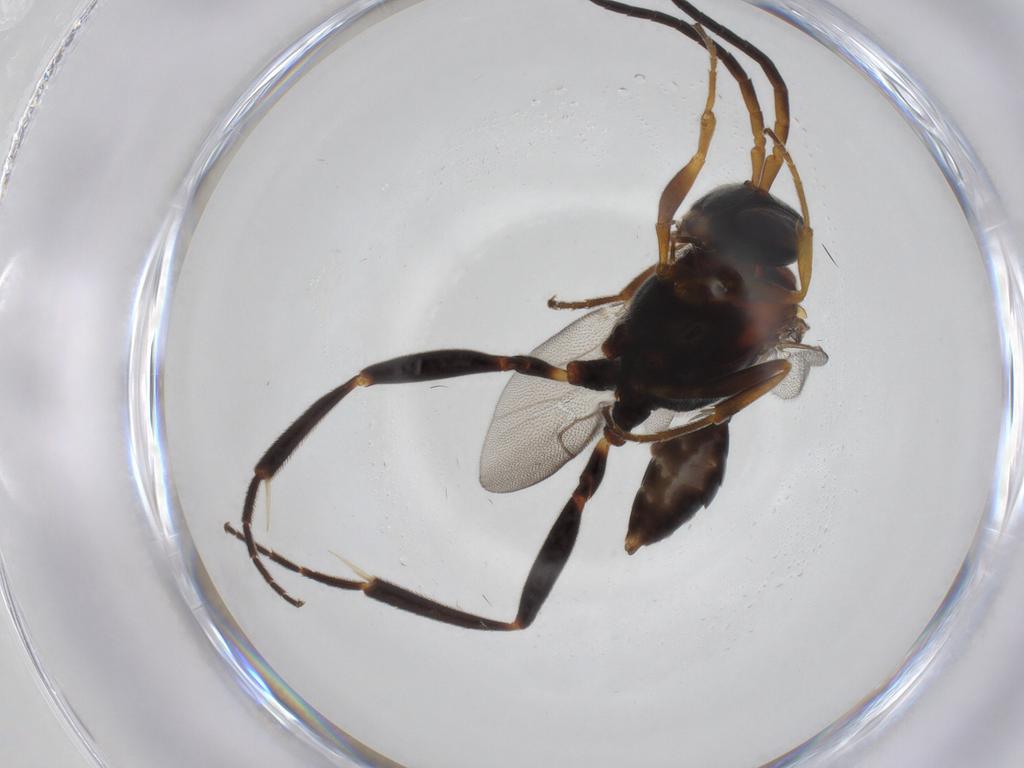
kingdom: Animalia
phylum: Arthropoda
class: Insecta
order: Hymenoptera
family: Evaniidae
